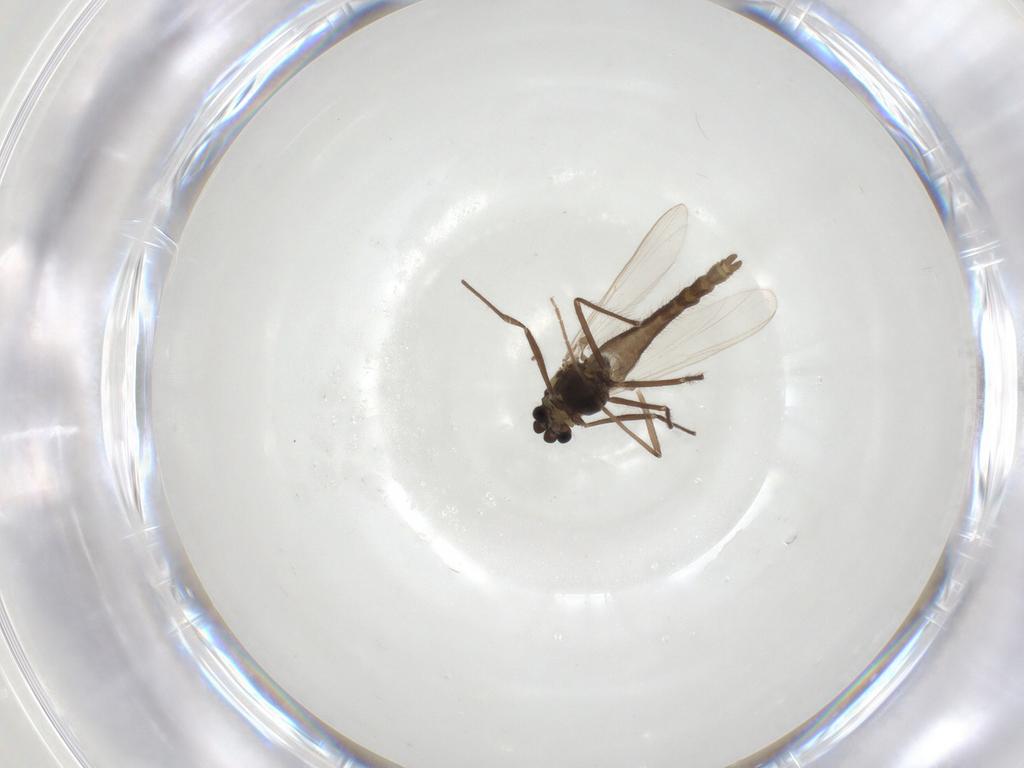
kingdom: Animalia
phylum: Arthropoda
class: Insecta
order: Diptera
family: Chironomidae
